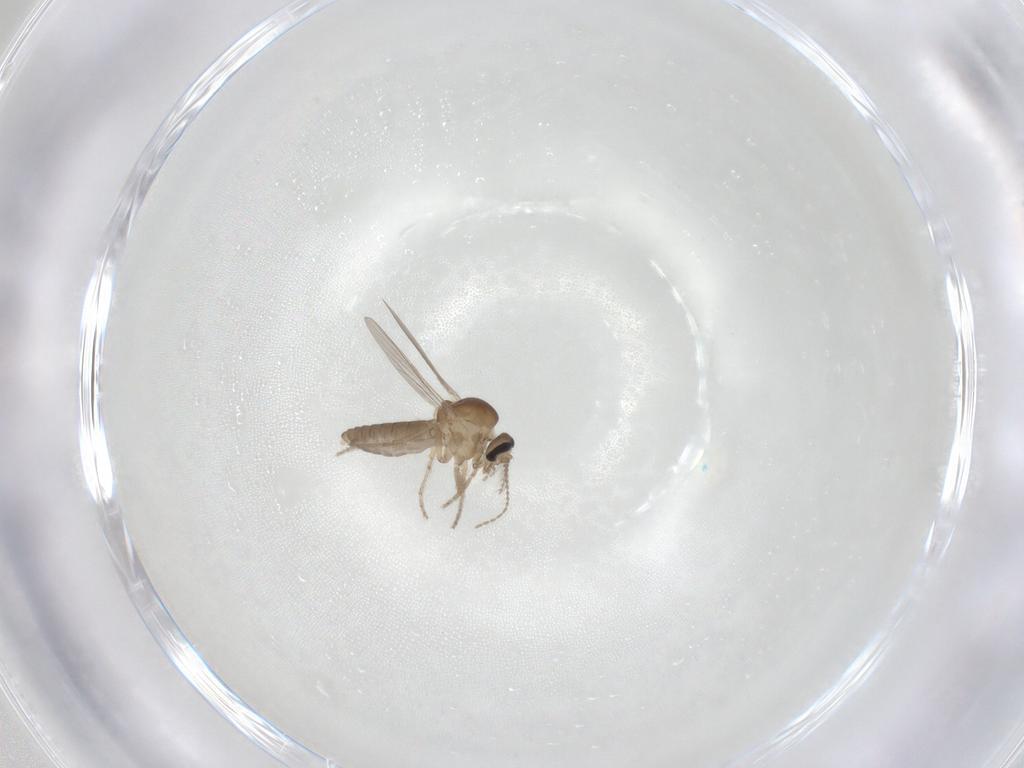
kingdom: Animalia
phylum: Arthropoda
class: Insecta
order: Diptera
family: Ceratopogonidae
